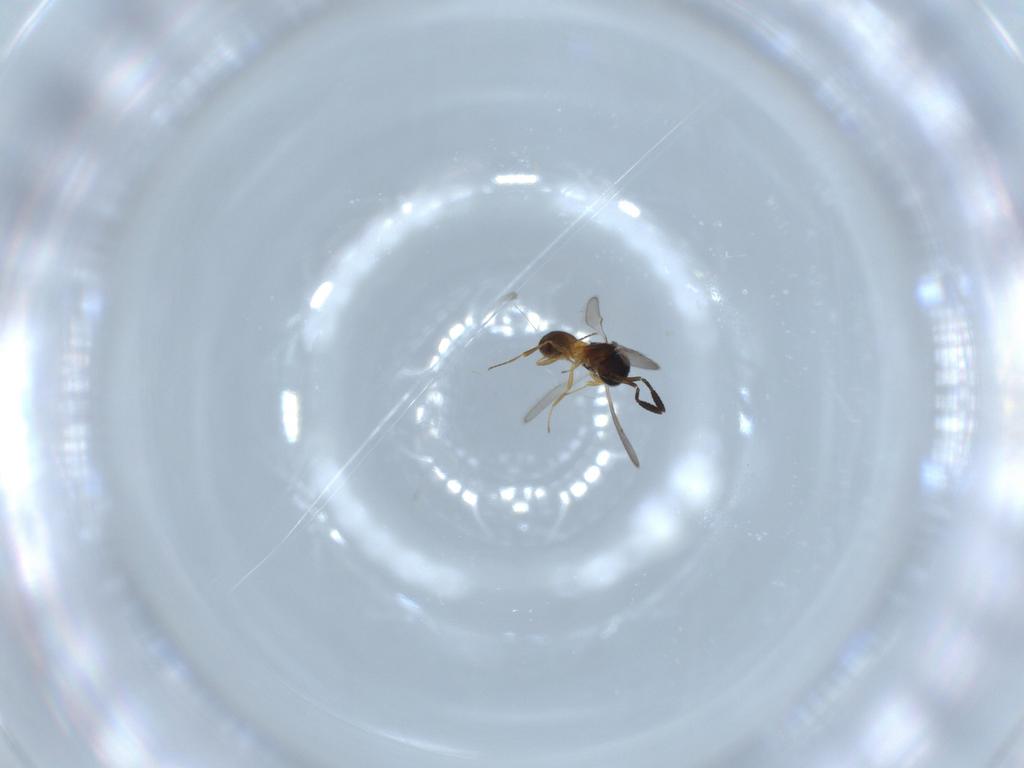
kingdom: Animalia
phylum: Arthropoda
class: Insecta
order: Hymenoptera
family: Scelionidae
